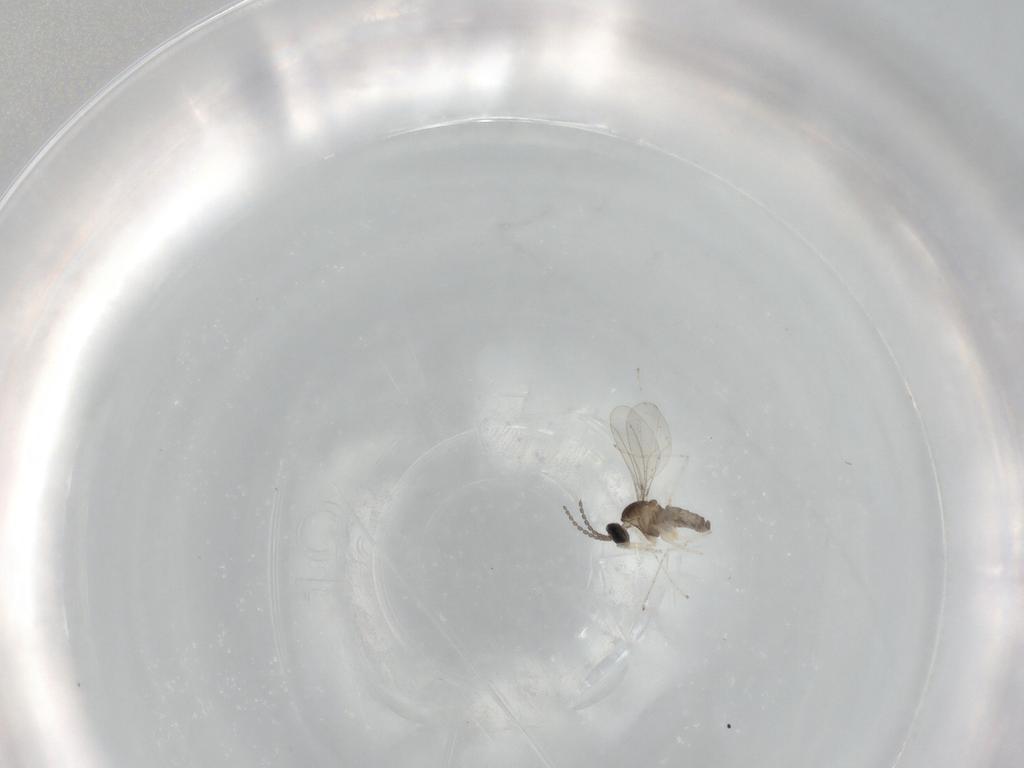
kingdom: Animalia
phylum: Arthropoda
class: Insecta
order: Diptera
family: Cecidomyiidae
